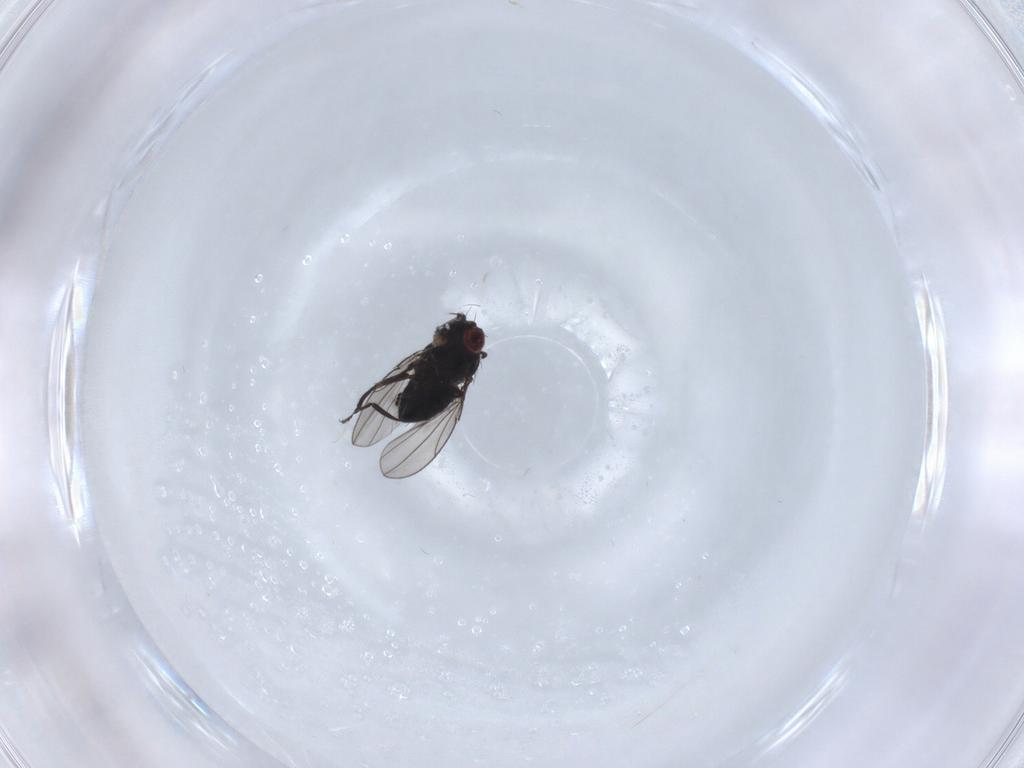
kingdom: Animalia
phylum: Arthropoda
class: Insecta
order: Diptera
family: Ephydridae
